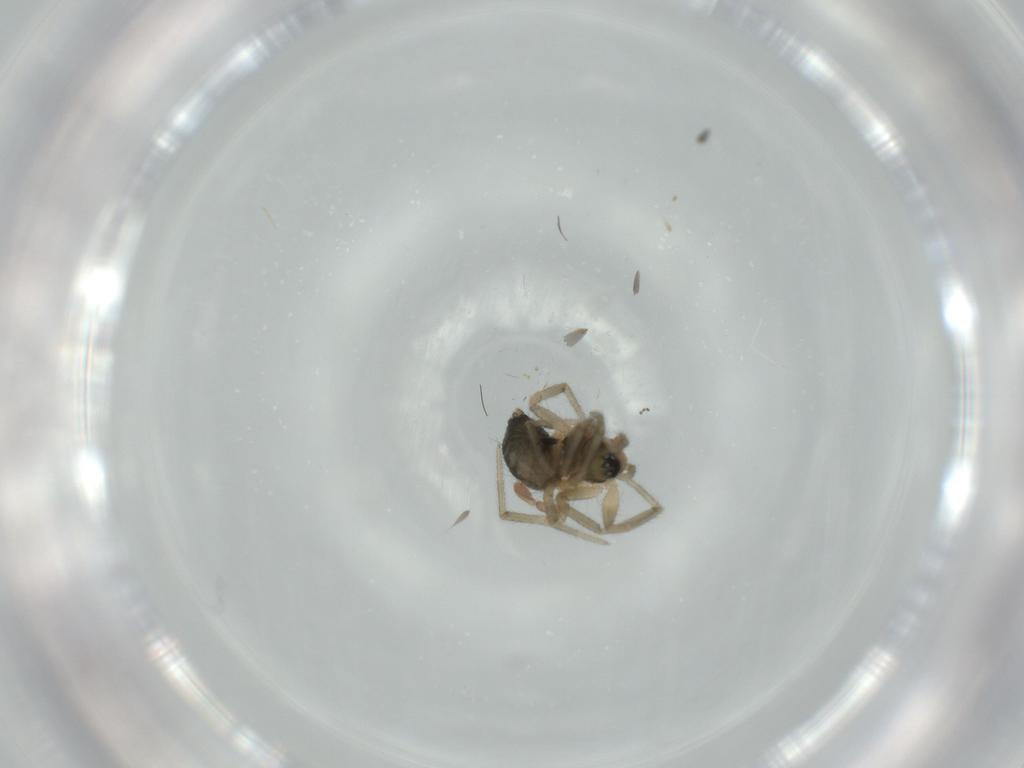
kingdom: Animalia
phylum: Arthropoda
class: Arachnida
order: Araneae
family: Linyphiidae
